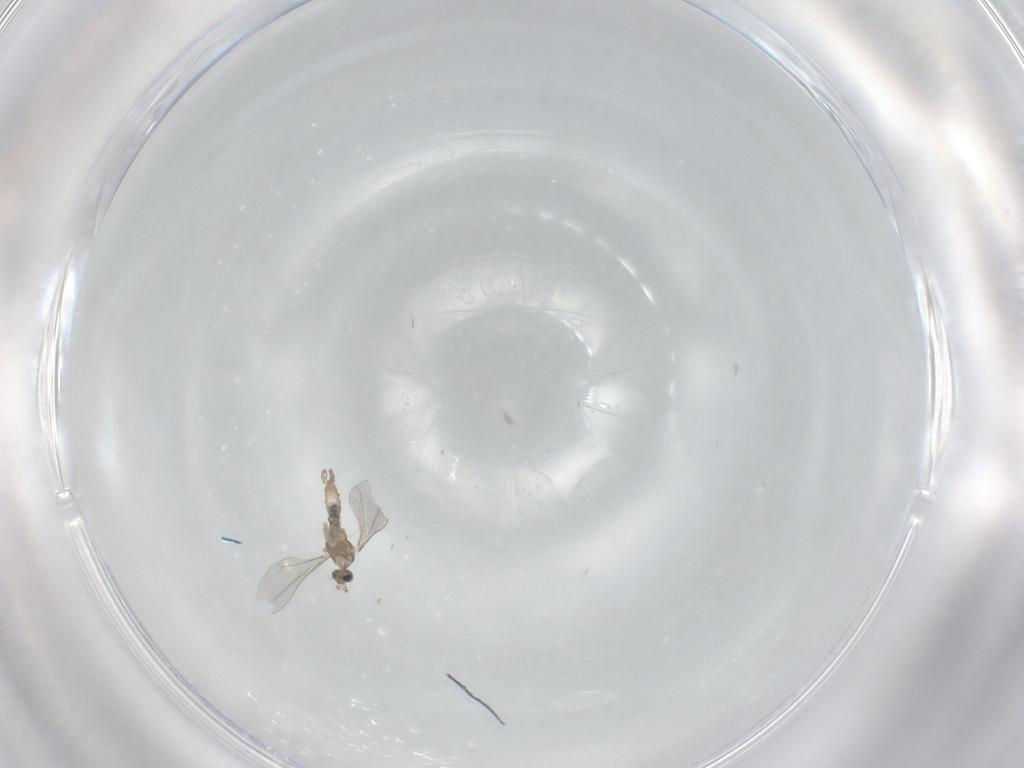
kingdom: Animalia
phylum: Arthropoda
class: Insecta
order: Diptera
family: Cecidomyiidae
